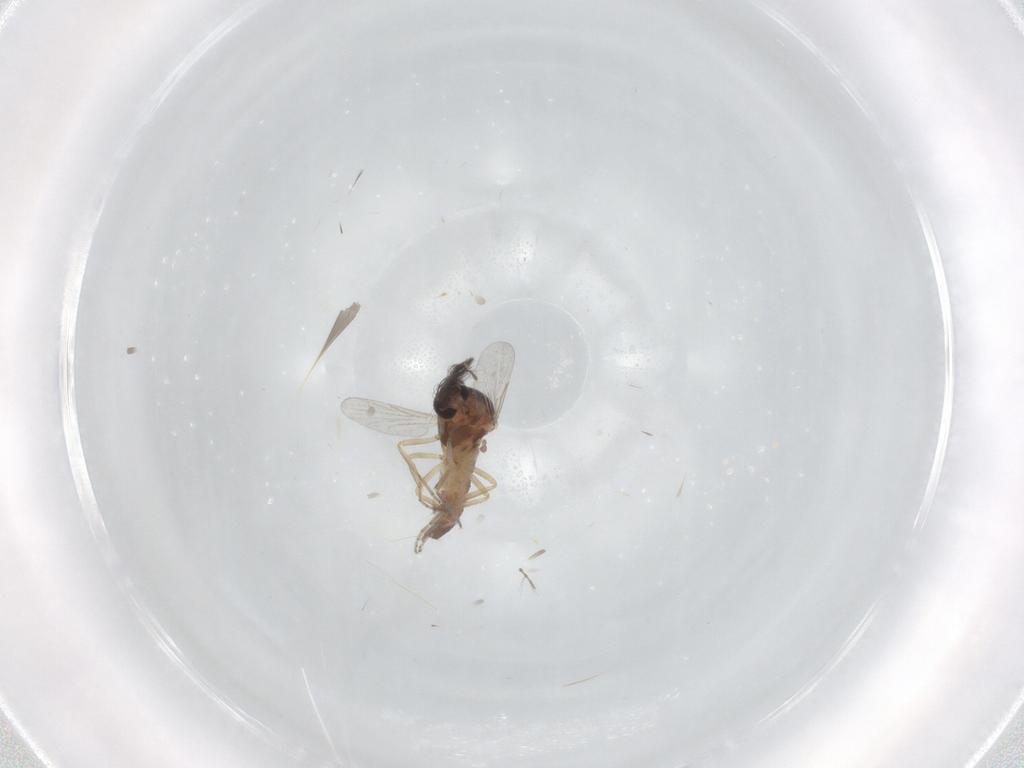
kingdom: Animalia
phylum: Arthropoda
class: Insecta
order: Diptera
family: Ceratopogonidae
